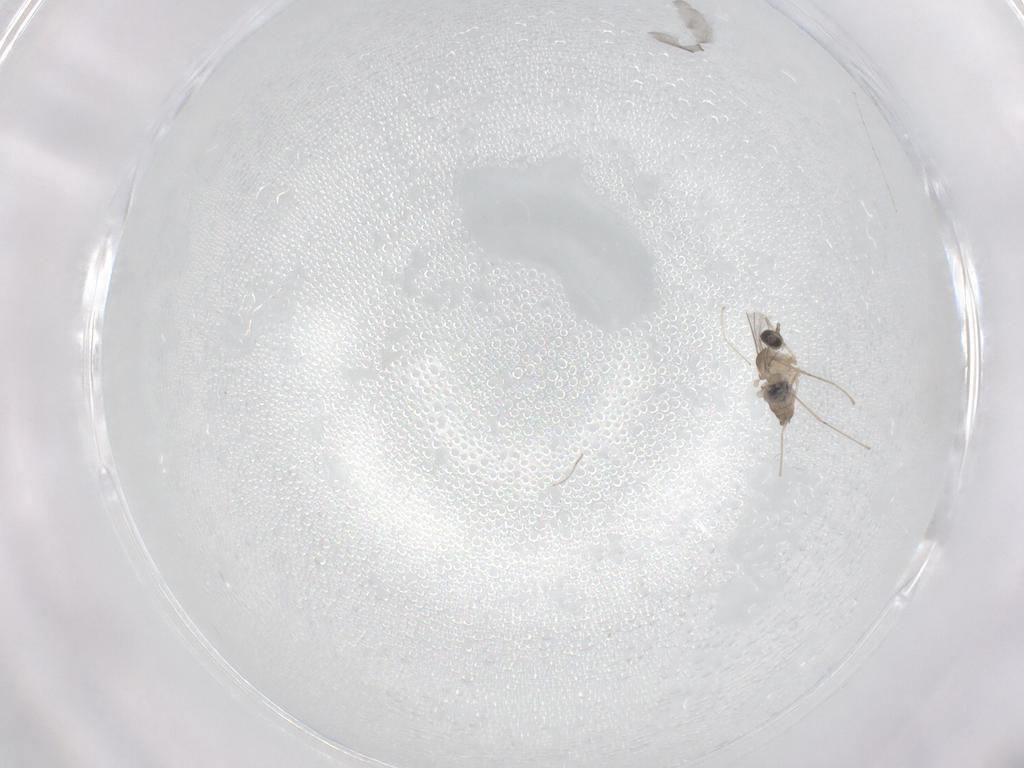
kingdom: Animalia
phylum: Arthropoda
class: Insecta
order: Diptera
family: Cecidomyiidae
